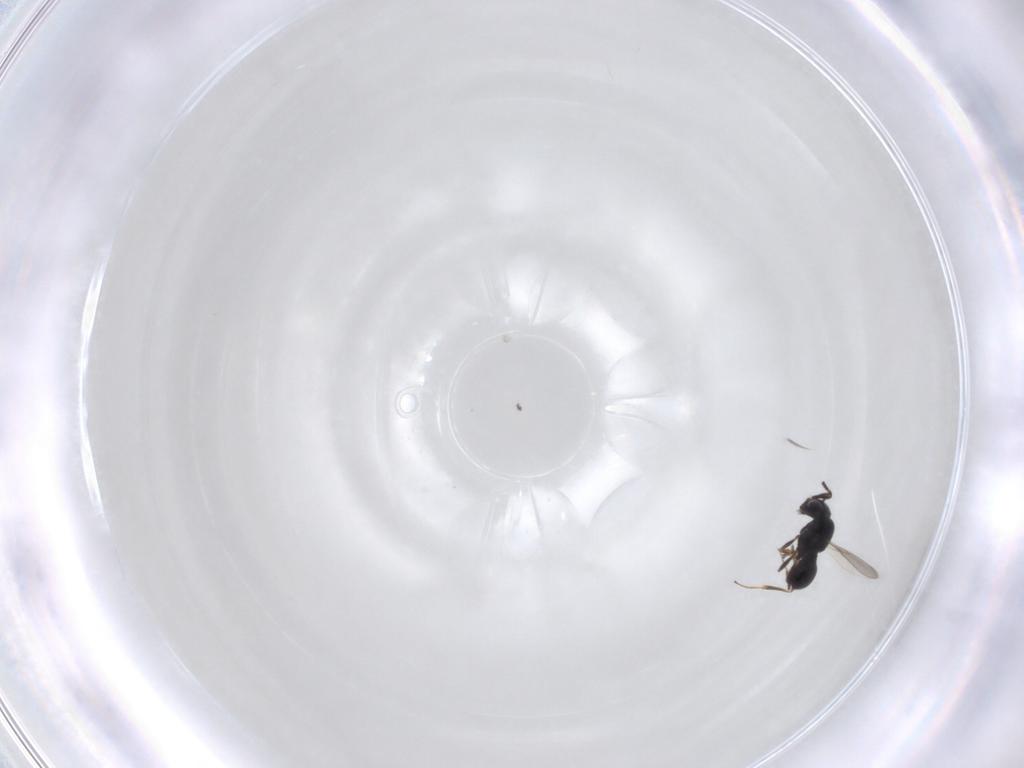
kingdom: Animalia
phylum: Arthropoda
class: Insecta
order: Hymenoptera
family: Scelionidae
